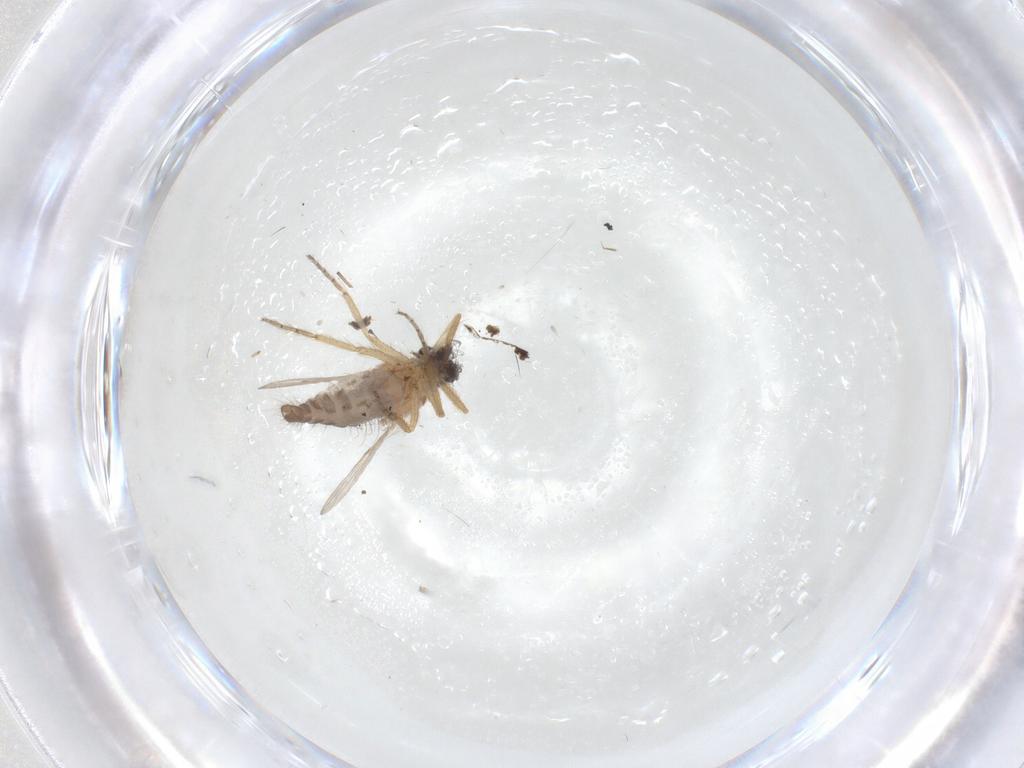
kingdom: Animalia
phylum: Arthropoda
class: Insecta
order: Diptera
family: Ceratopogonidae
